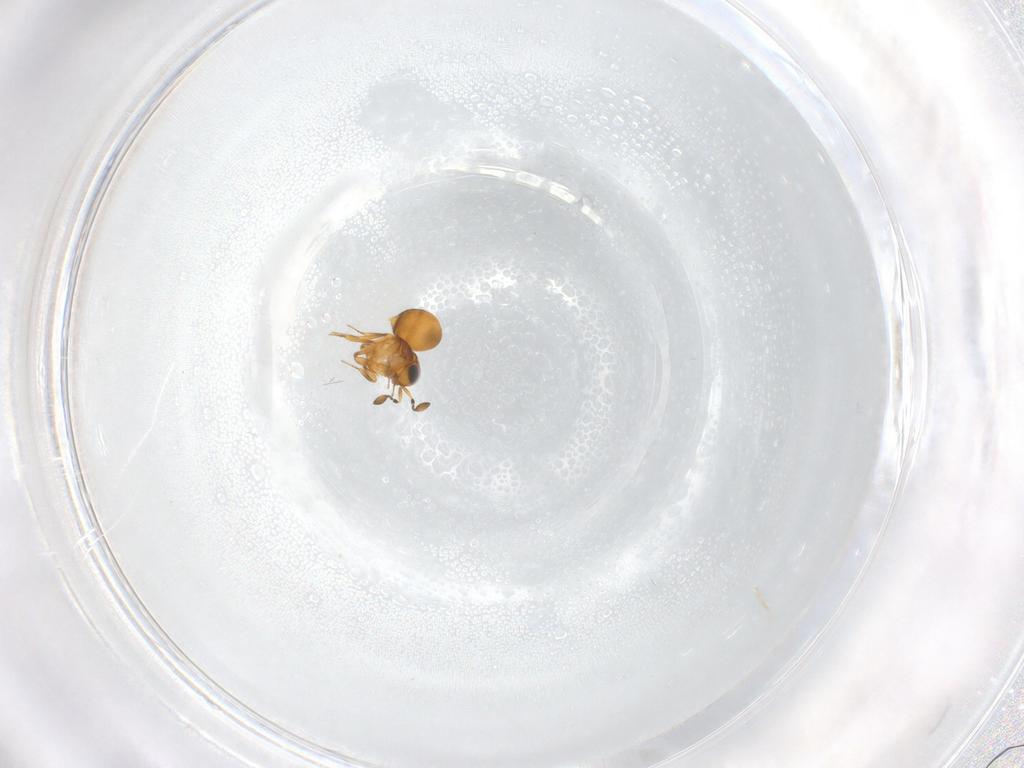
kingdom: Animalia
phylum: Arthropoda
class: Insecta
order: Hymenoptera
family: Scelionidae
